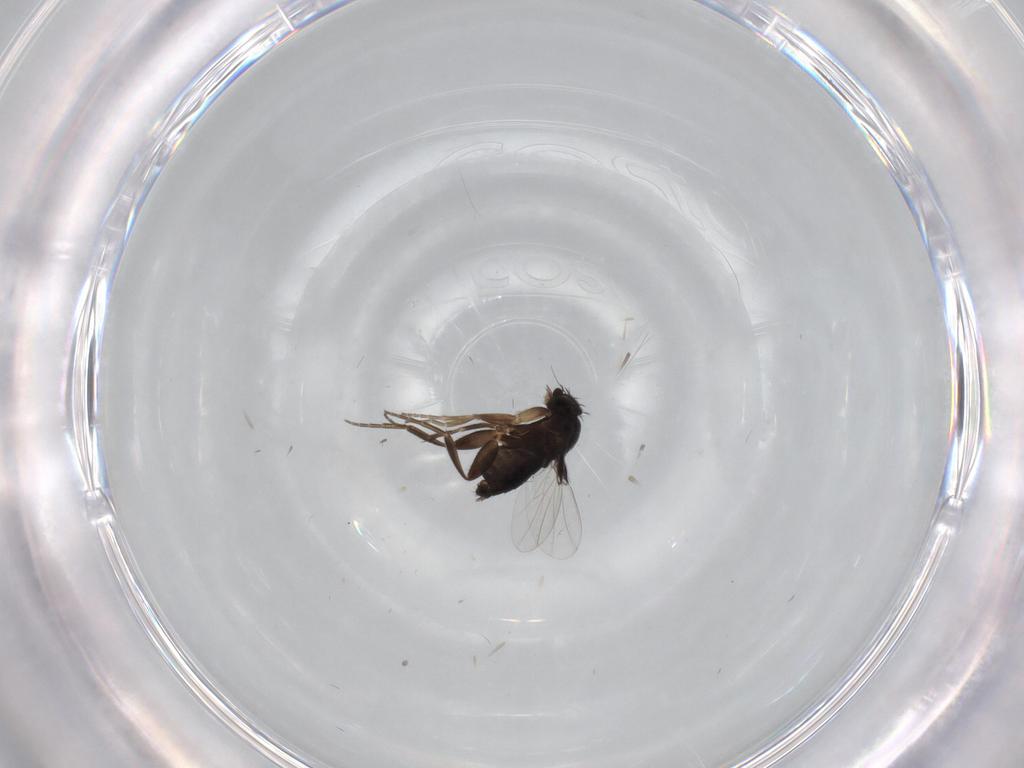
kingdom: Animalia
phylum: Arthropoda
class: Insecta
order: Diptera
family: Phoridae
